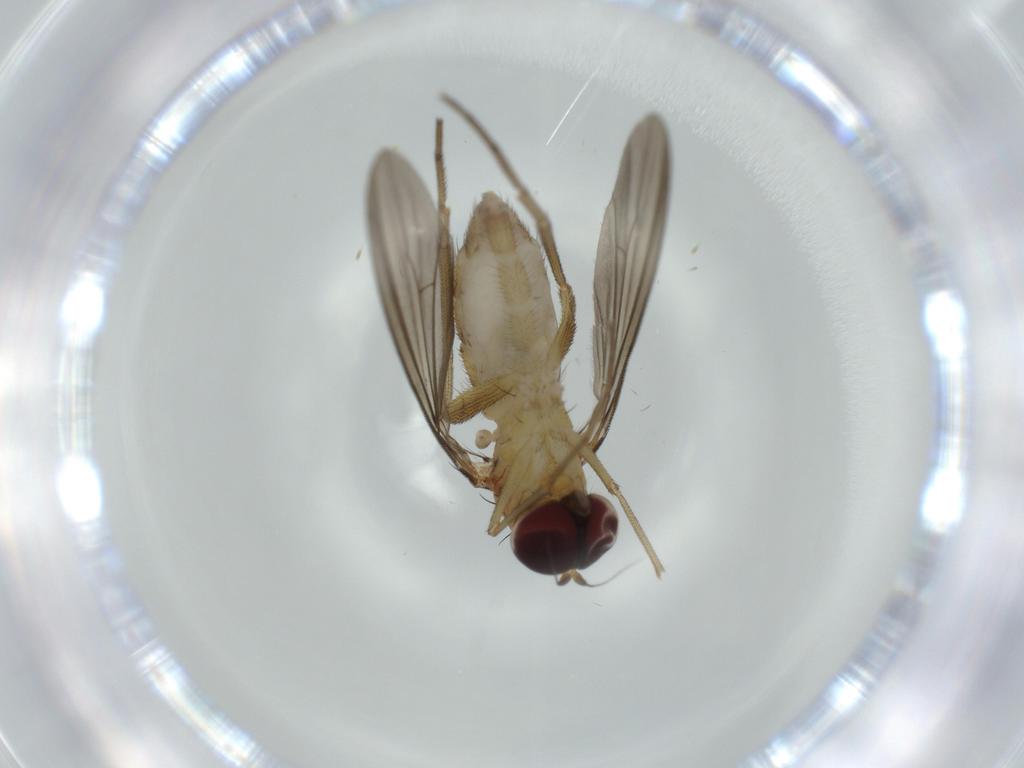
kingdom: Animalia
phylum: Arthropoda
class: Insecta
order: Diptera
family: Dolichopodidae
